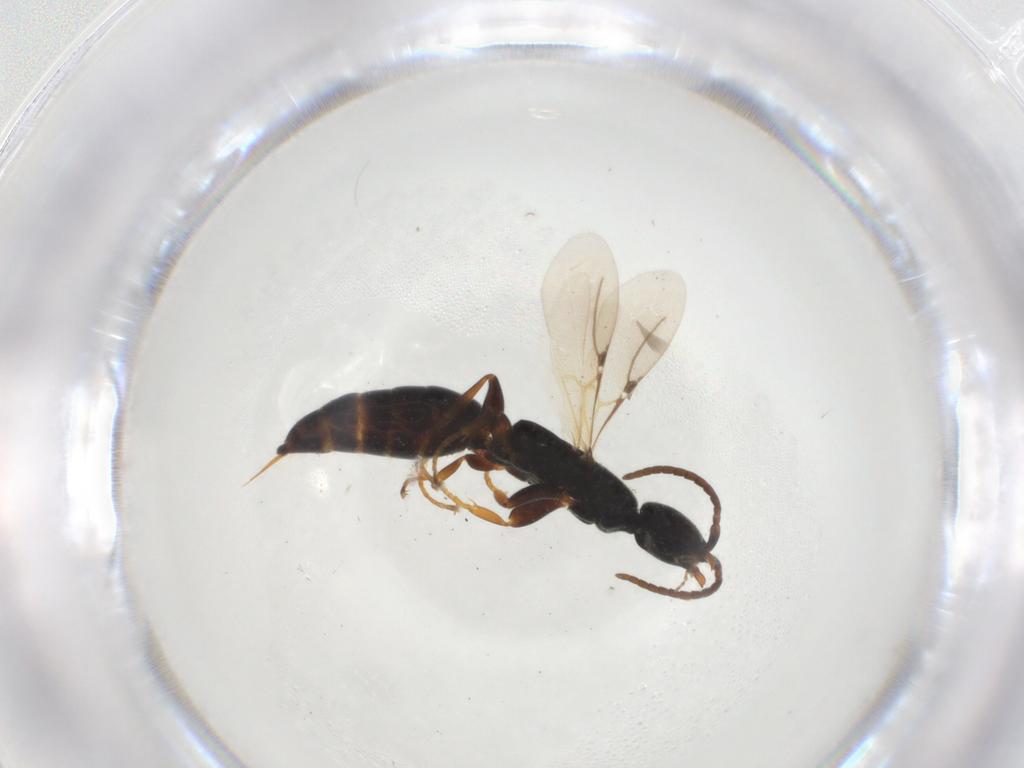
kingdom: Animalia
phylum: Arthropoda
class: Insecta
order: Hymenoptera
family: Bethylidae
